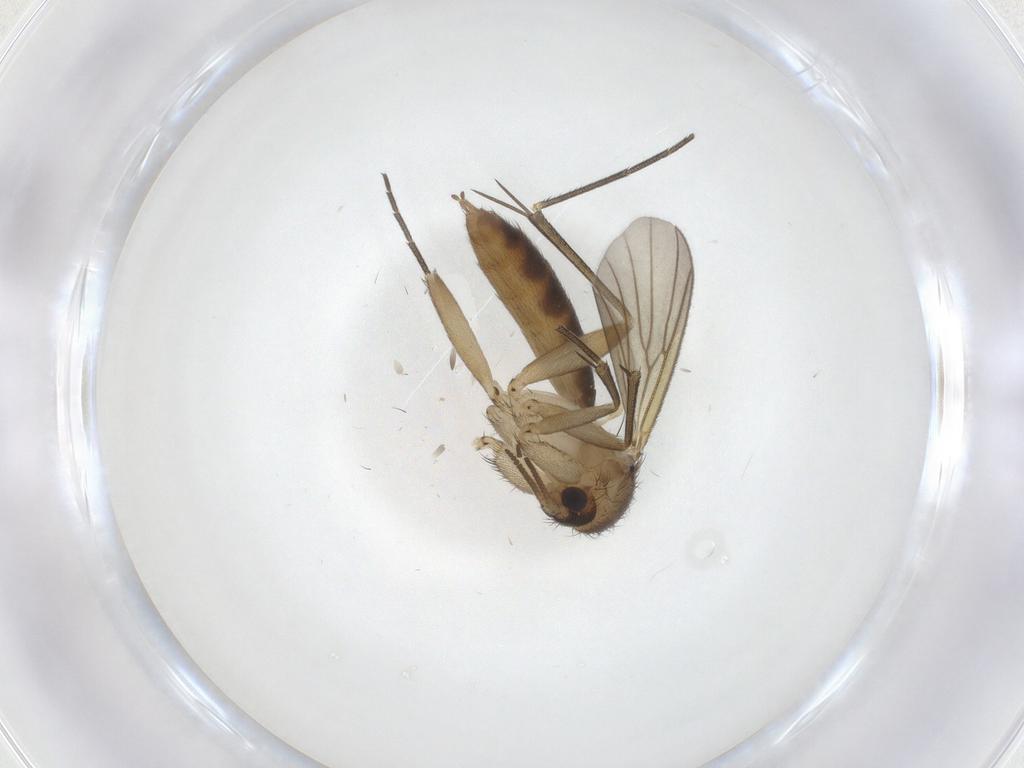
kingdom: Animalia
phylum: Arthropoda
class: Insecta
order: Diptera
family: Mycetophilidae
